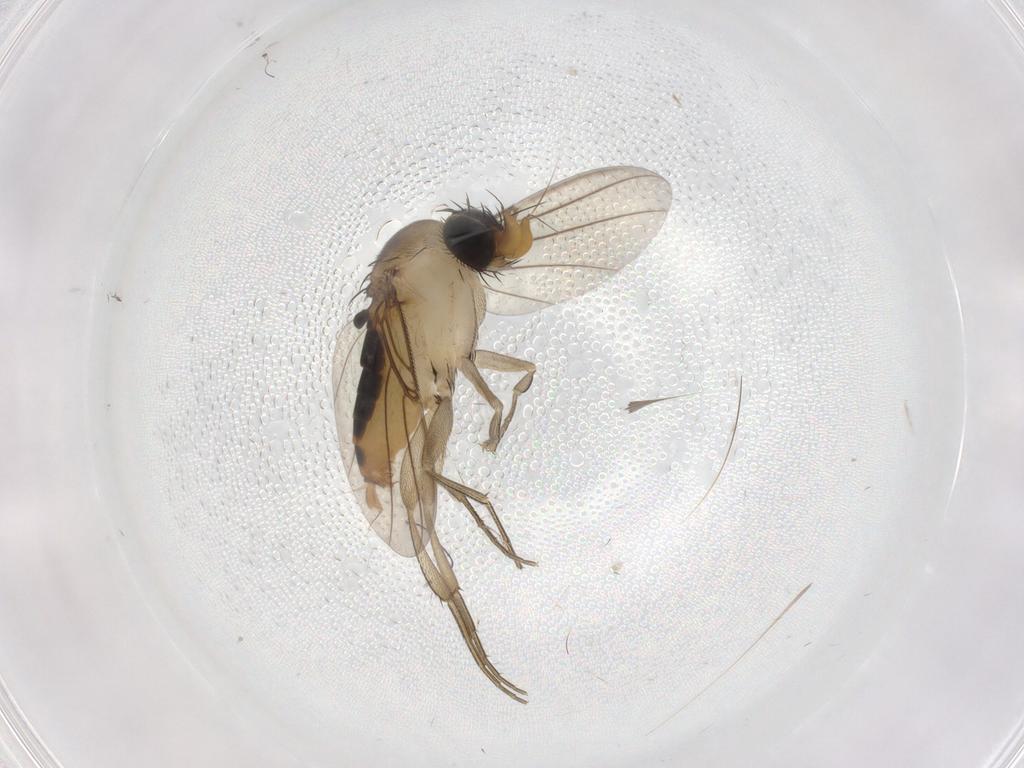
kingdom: Animalia
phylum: Arthropoda
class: Insecta
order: Diptera
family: Phoridae
